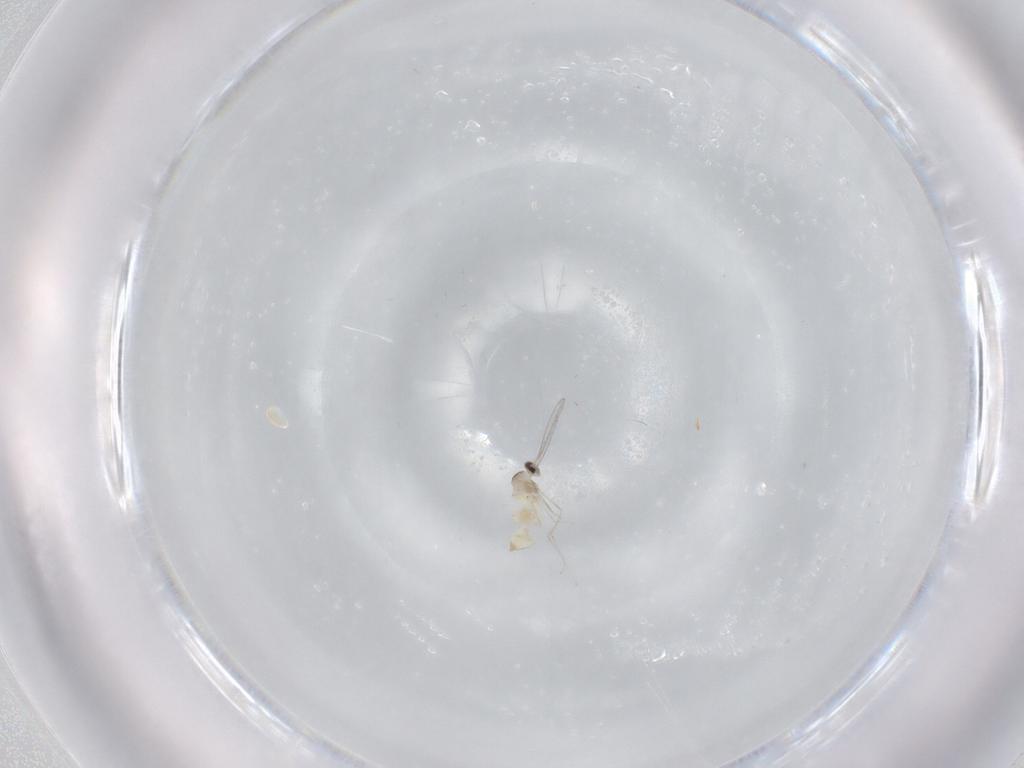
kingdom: Animalia
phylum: Arthropoda
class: Insecta
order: Diptera
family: Cecidomyiidae
